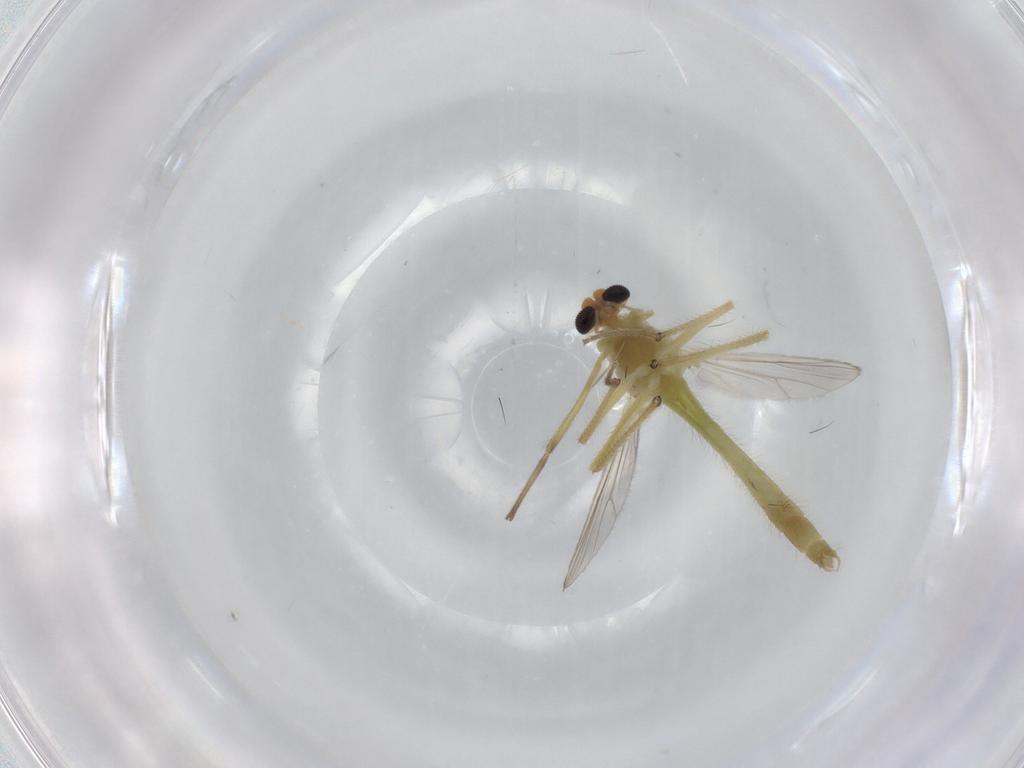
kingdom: Animalia
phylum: Arthropoda
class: Insecta
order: Diptera
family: Chironomidae
